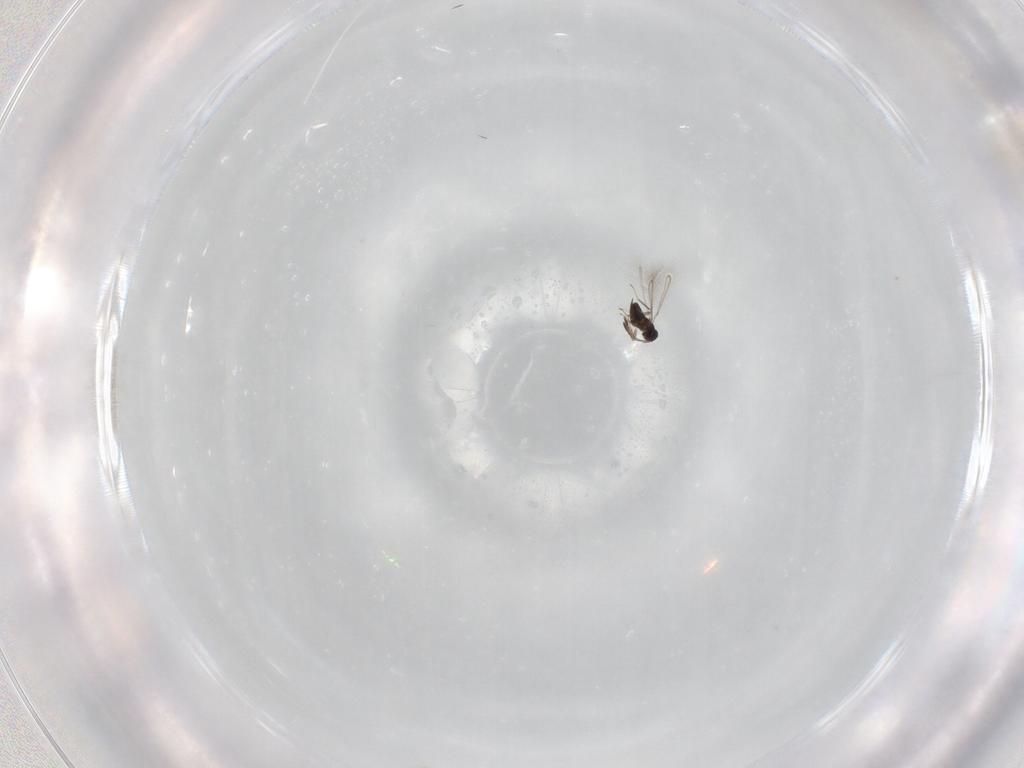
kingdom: Animalia
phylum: Arthropoda
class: Insecta
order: Hymenoptera
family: Mymaridae
